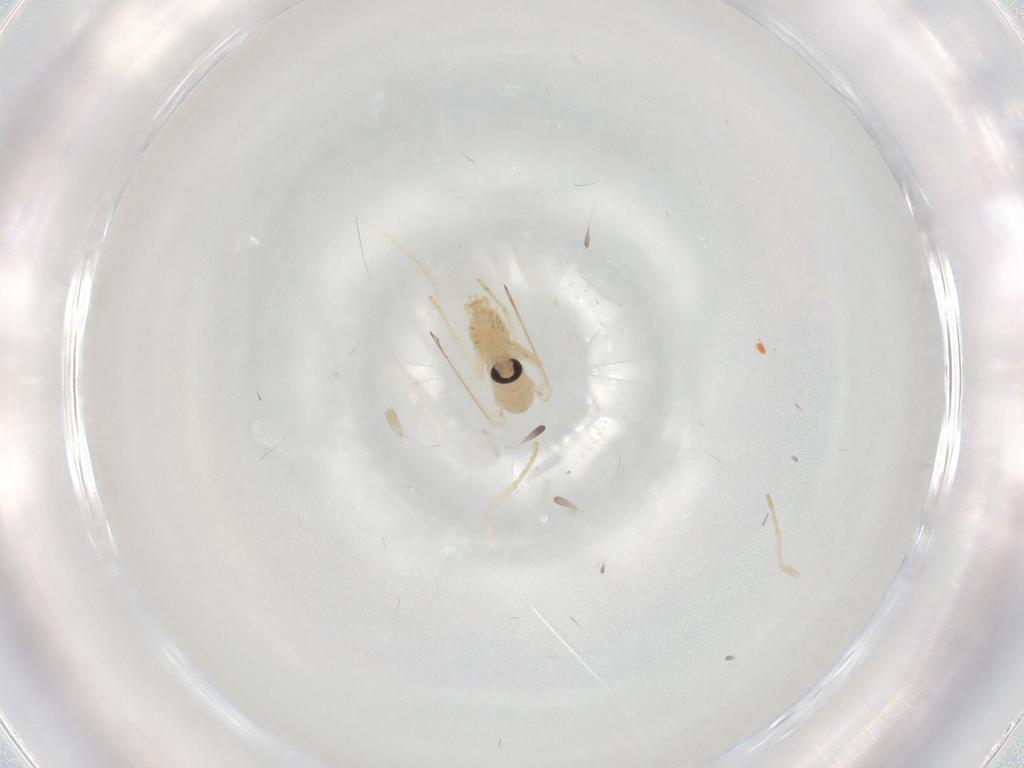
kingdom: Animalia
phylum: Arthropoda
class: Insecta
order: Diptera
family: Psychodidae
